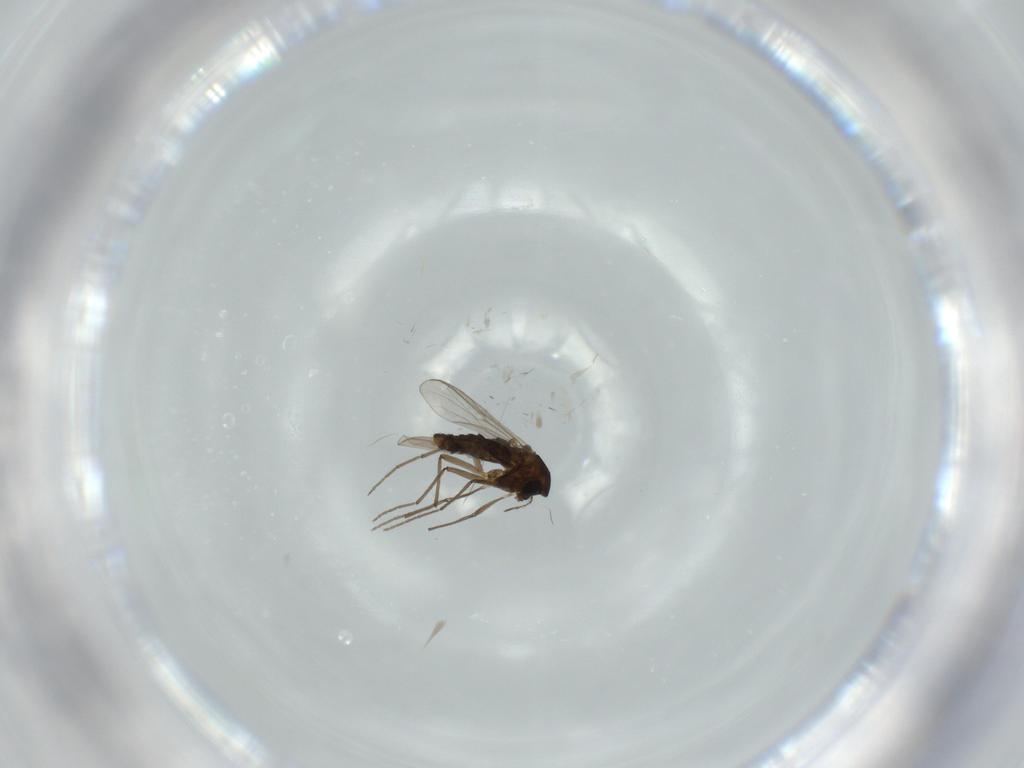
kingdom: Animalia
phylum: Arthropoda
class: Insecta
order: Diptera
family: Chironomidae
